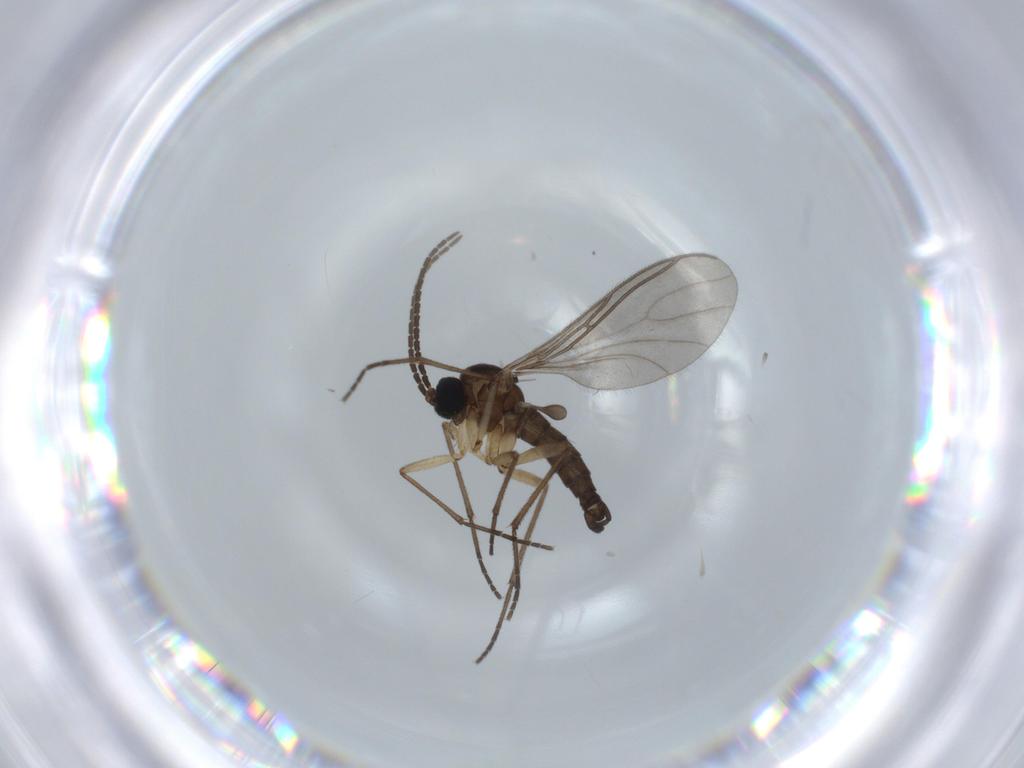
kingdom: Animalia
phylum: Arthropoda
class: Insecta
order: Diptera
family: Sciaridae
